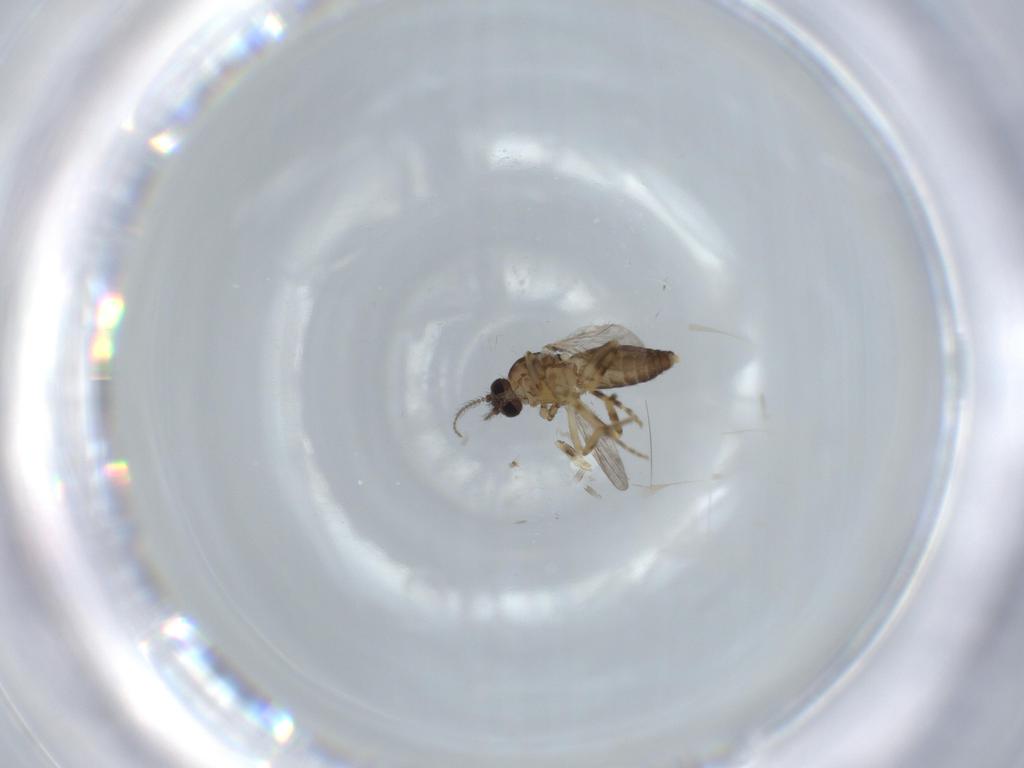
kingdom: Animalia
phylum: Arthropoda
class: Insecta
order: Diptera
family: Ceratopogonidae
